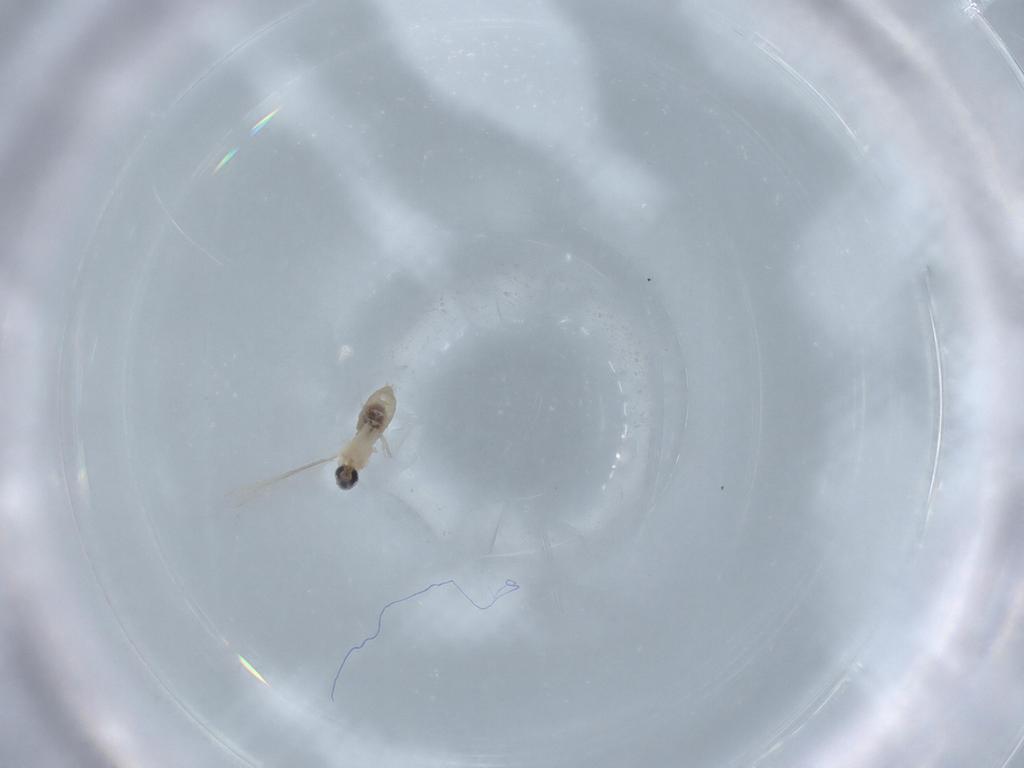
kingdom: Animalia
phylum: Arthropoda
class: Insecta
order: Diptera
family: Cecidomyiidae
